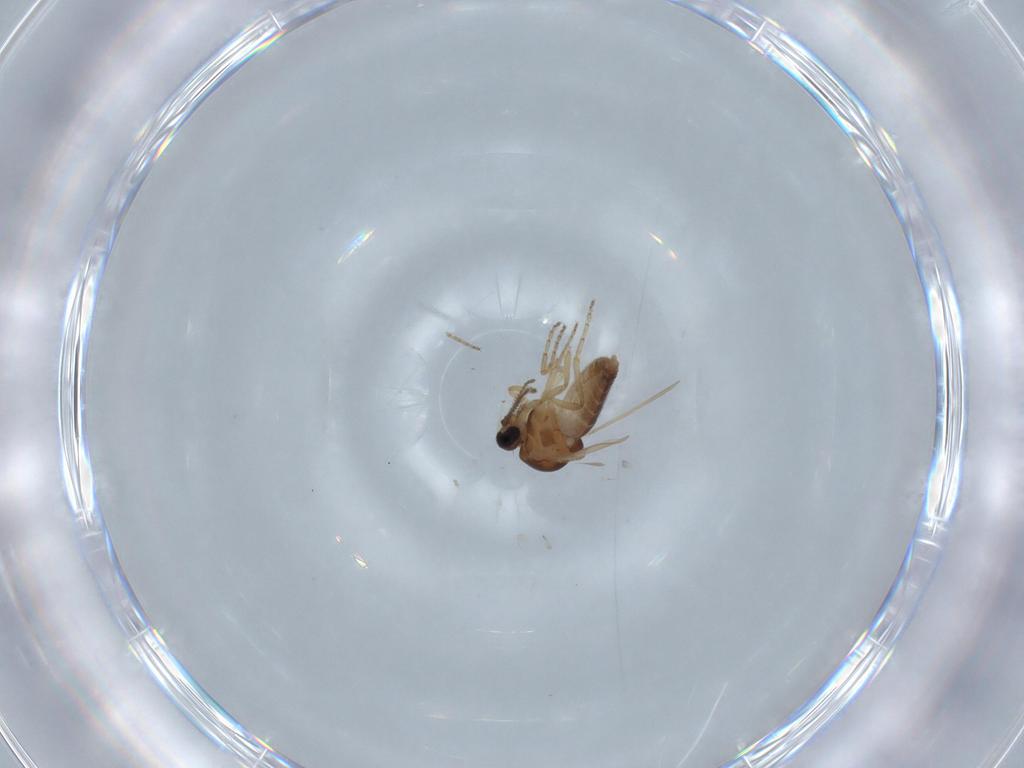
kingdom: Animalia
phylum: Arthropoda
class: Insecta
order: Diptera
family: Ceratopogonidae
